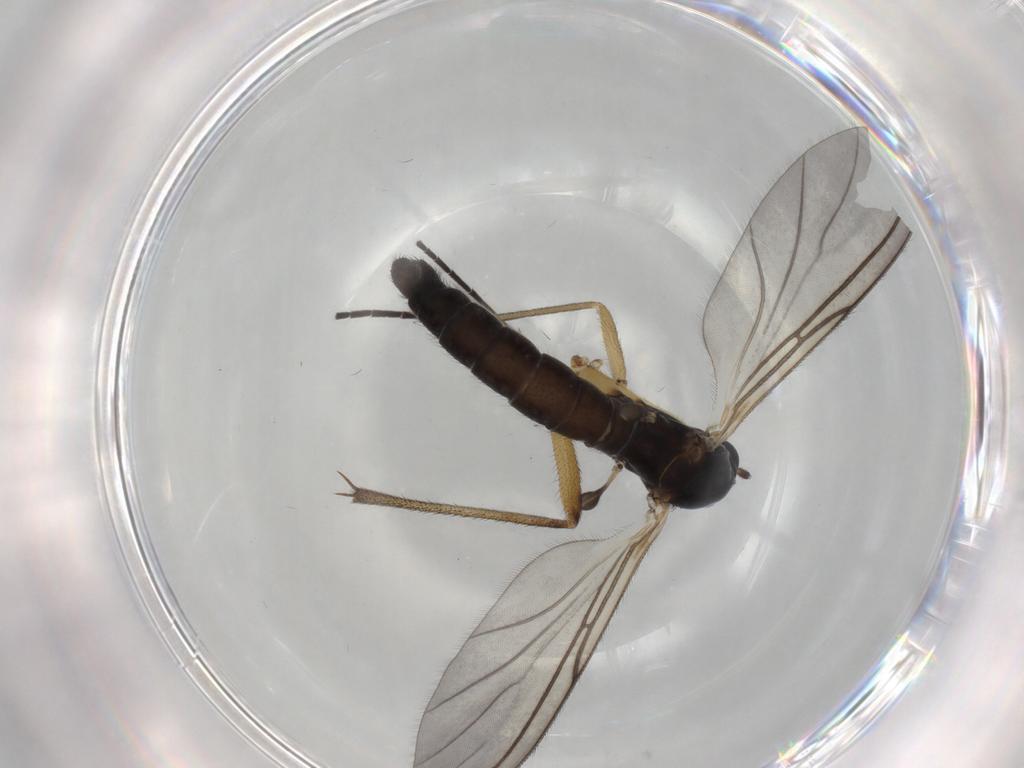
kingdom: Animalia
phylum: Arthropoda
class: Insecta
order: Diptera
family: Sciaridae
